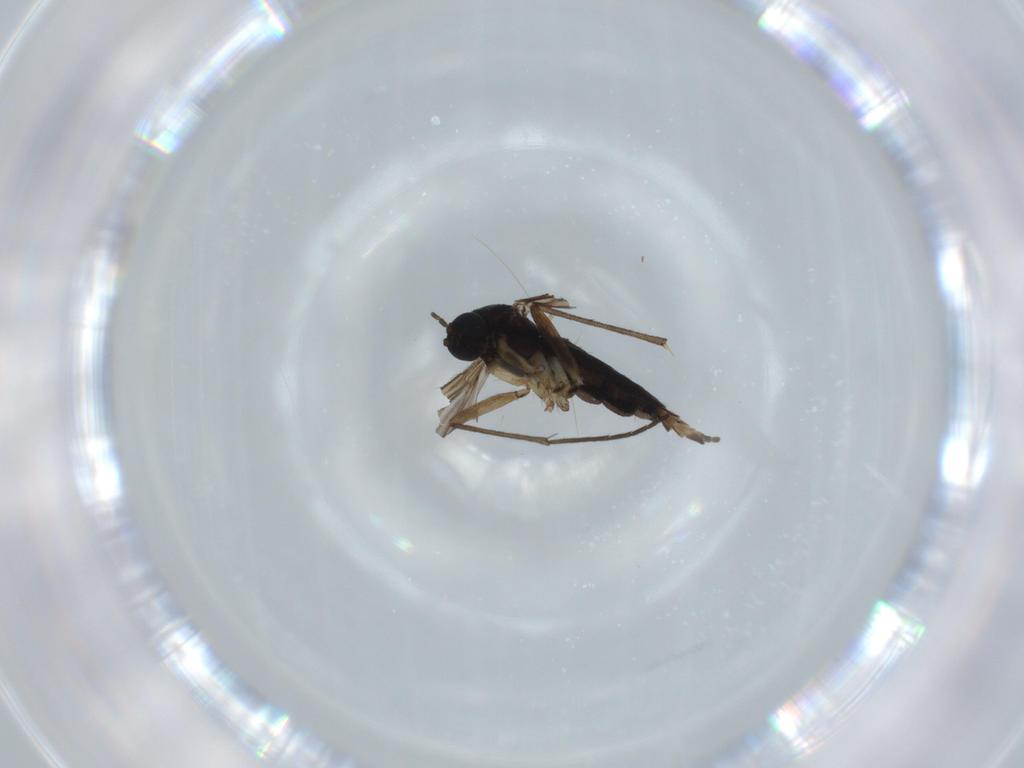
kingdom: Animalia
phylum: Arthropoda
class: Insecta
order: Diptera
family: Sciaridae
